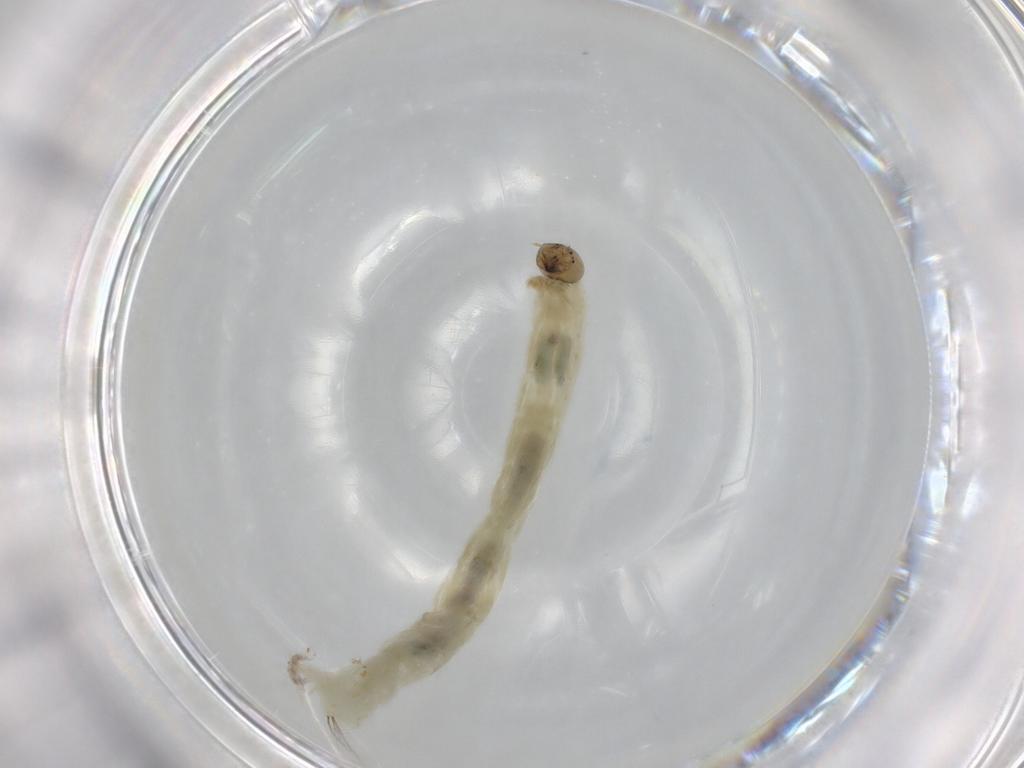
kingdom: Animalia
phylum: Arthropoda
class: Insecta
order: Diptera
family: Chironomidae
